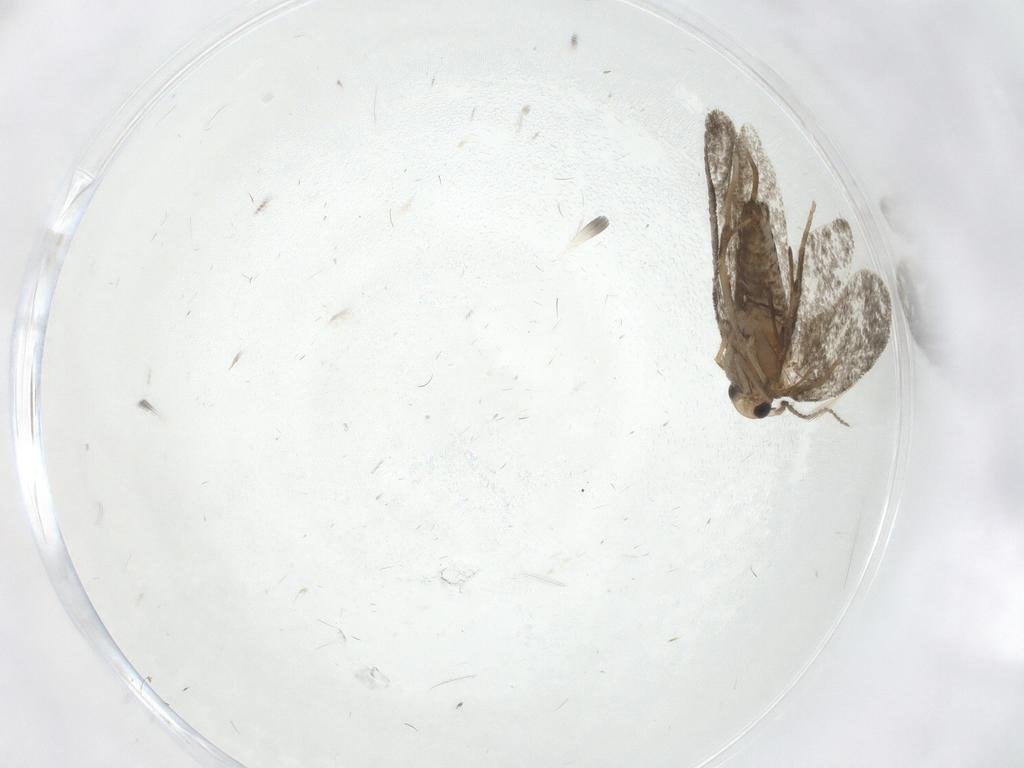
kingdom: Animalia
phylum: Arthropoda
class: Insecta
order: Lepidoptera
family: Psychidae
